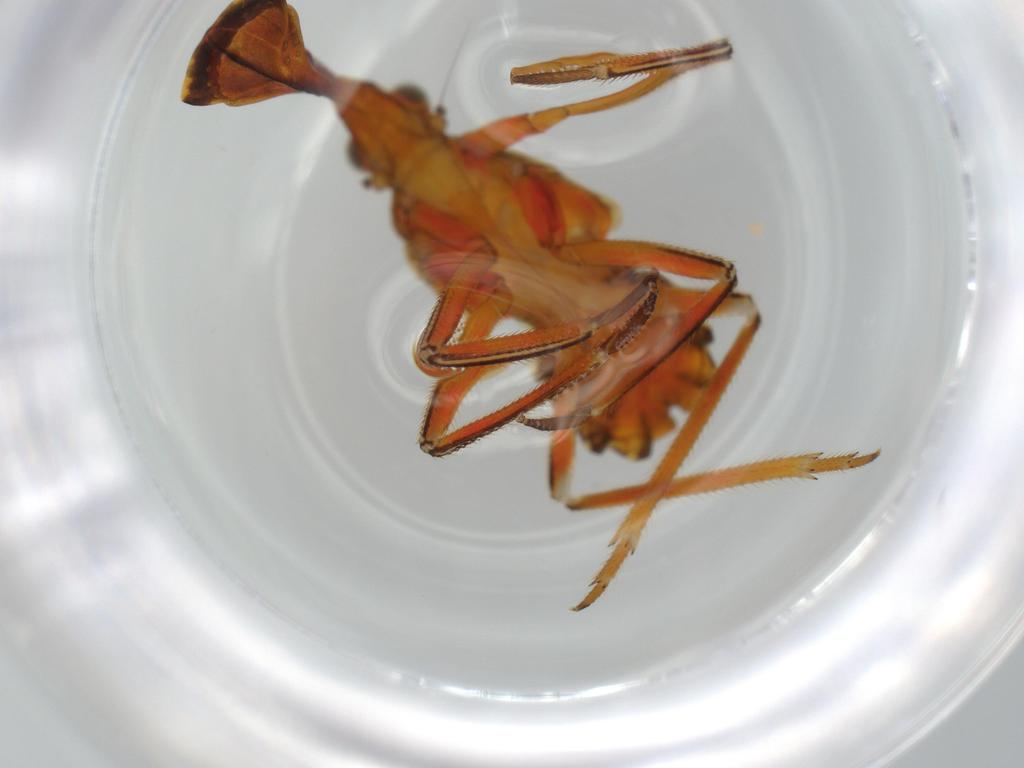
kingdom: Animalia
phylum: Arthropoda
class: Insecta
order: Hemiptera
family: Fulgoridae
